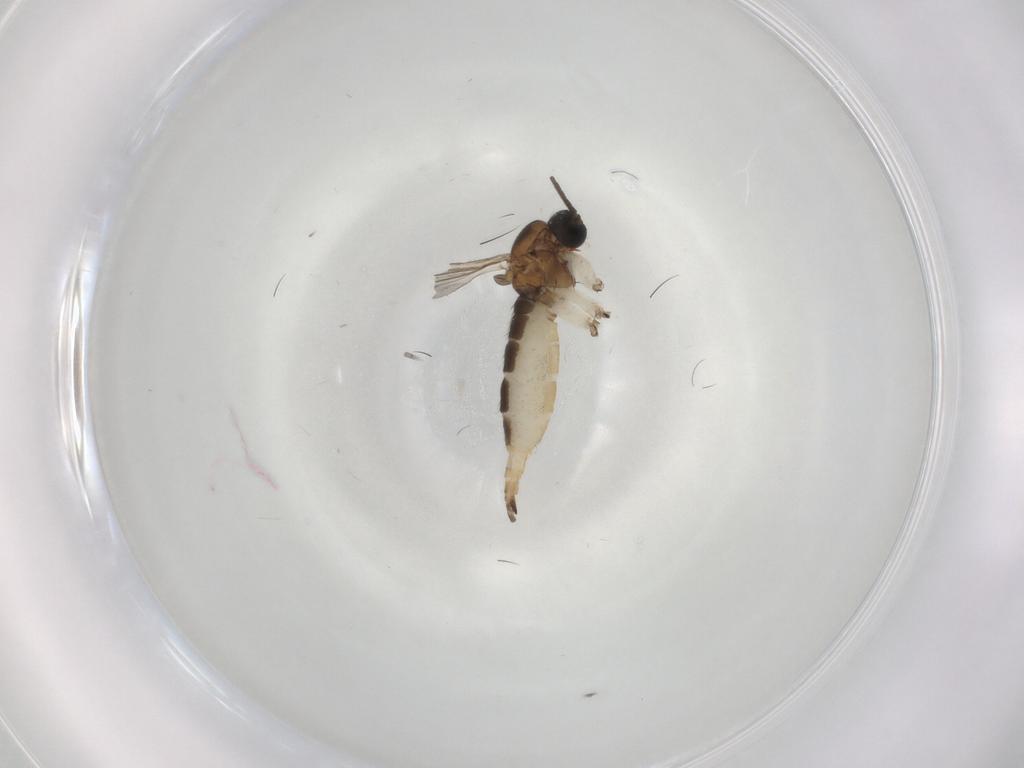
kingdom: Animalia
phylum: Arthropoda
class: Insecta
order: Diptera
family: Sciaridae
